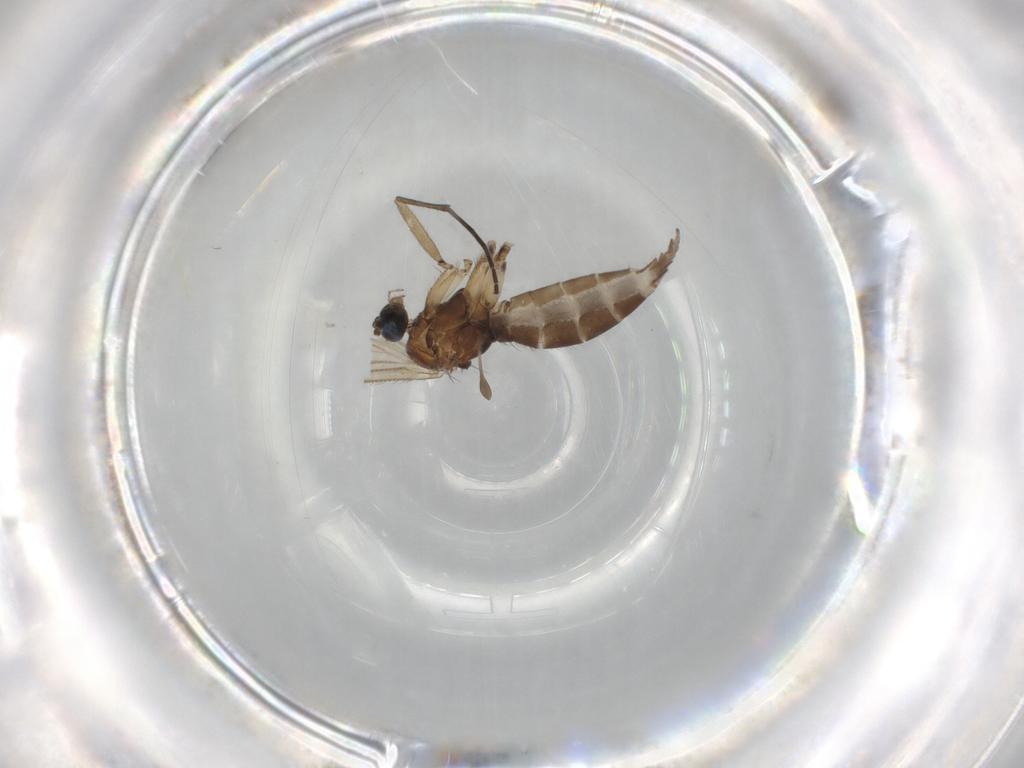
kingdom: Animalia
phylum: Arthropoda
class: Insecta
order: Diptera
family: Sciaridae
